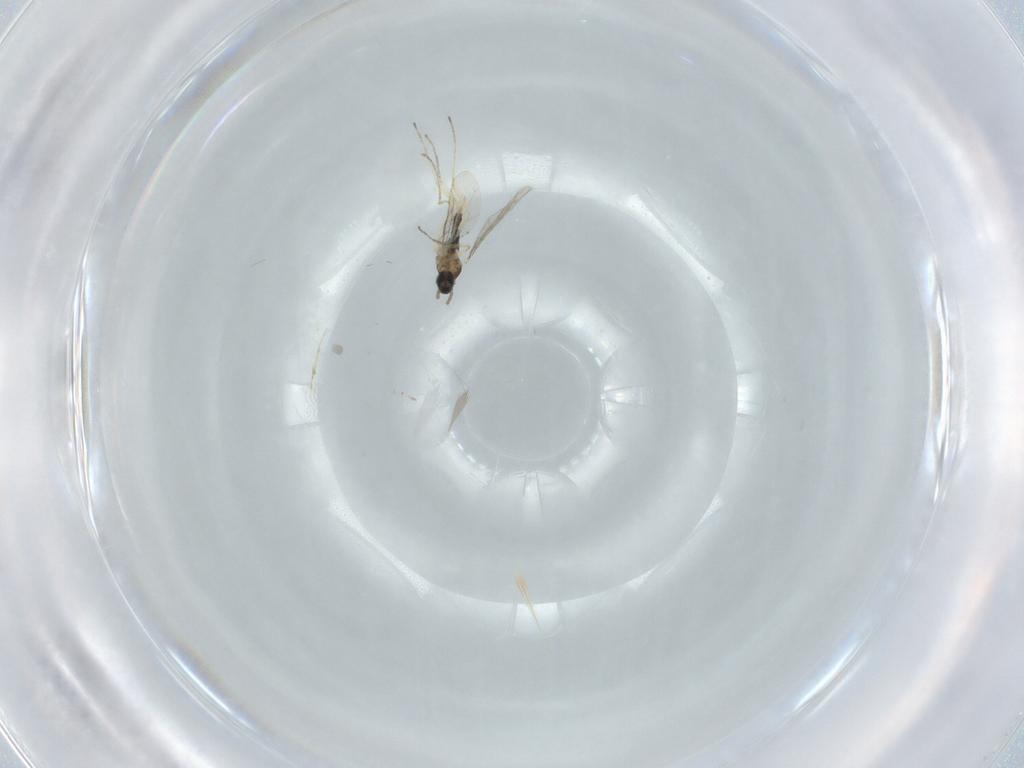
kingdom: Animalia
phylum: Arthropoda
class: Insecta
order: Diptera
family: Cecidomyiidae
